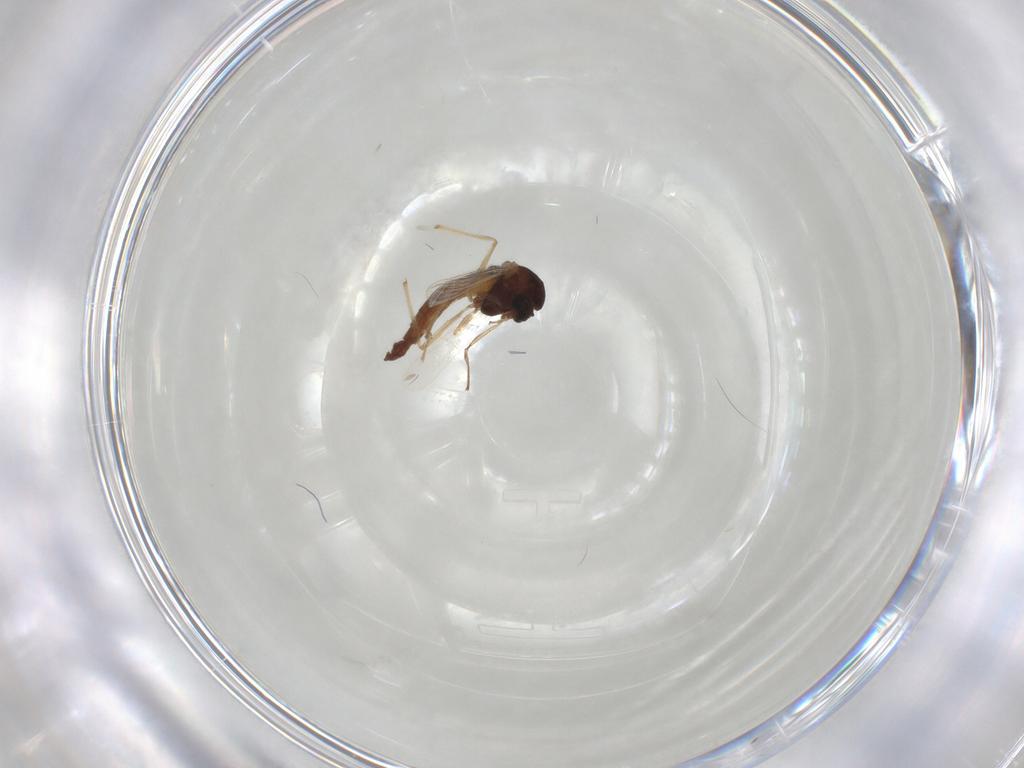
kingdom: Animalia
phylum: Arthropoda
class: Insecta
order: Diptera
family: Chironomidae
